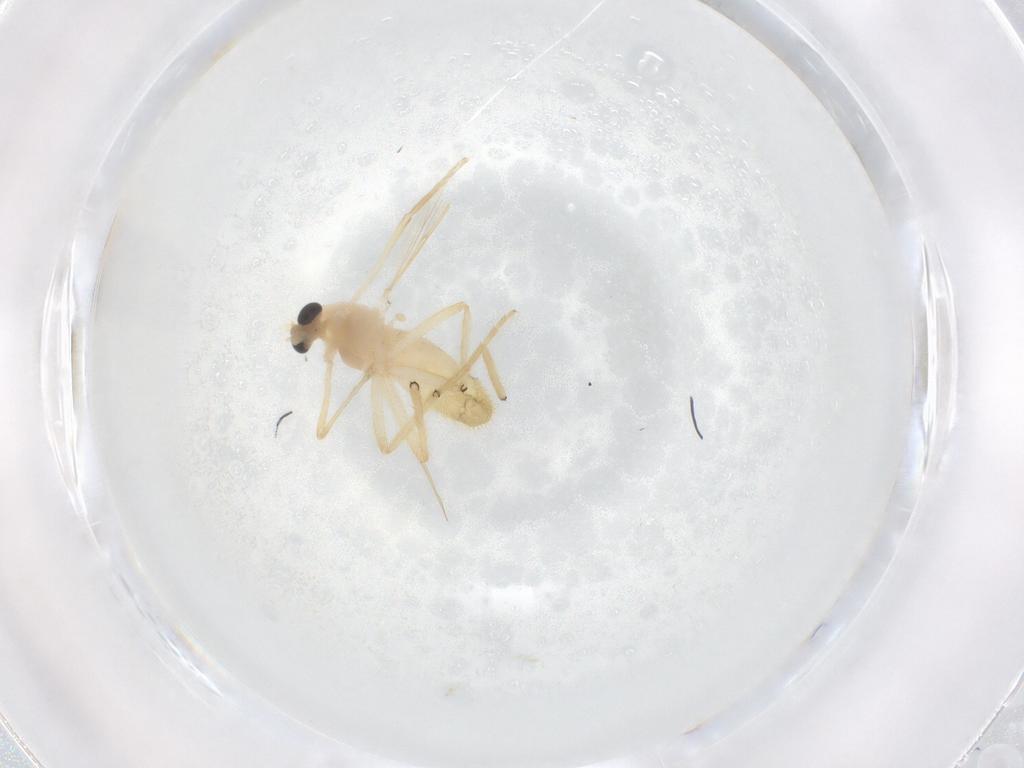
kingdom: Animalia
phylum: Arthropoda
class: Insecta
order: Diptera
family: Chironomidae
